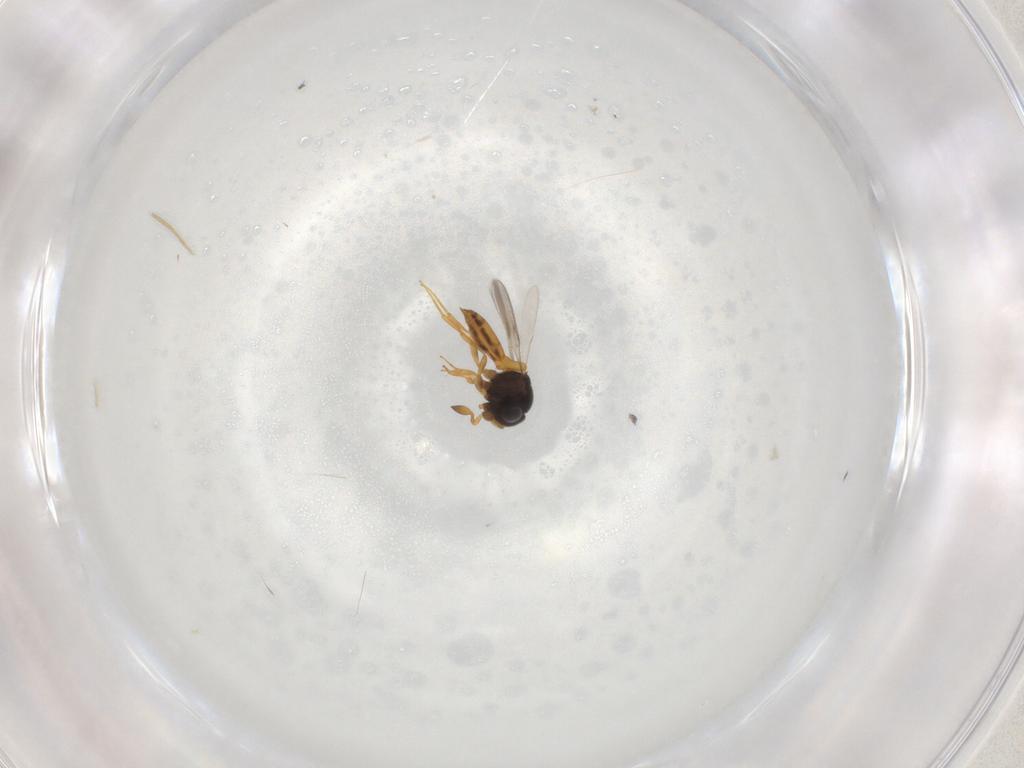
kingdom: Animalia
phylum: Arthropoda
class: Insecta
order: Hymenoptera
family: Scelionidae
